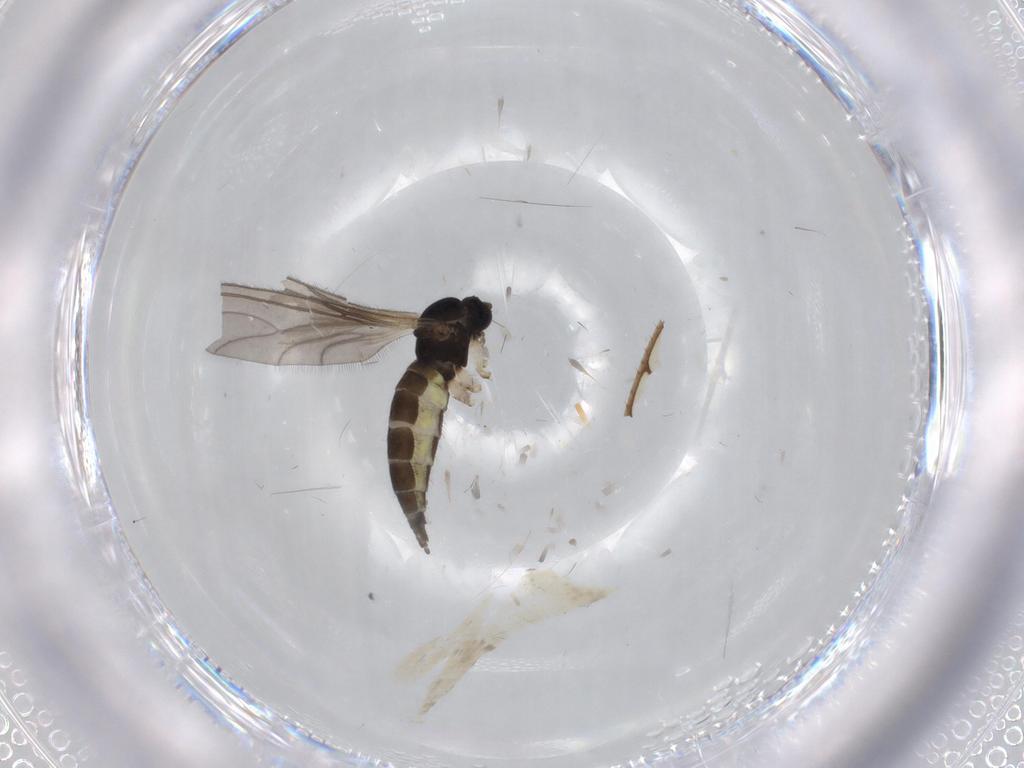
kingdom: Animalia
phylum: Arthropoda
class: Insecta
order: Diptera
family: Sciaridae
